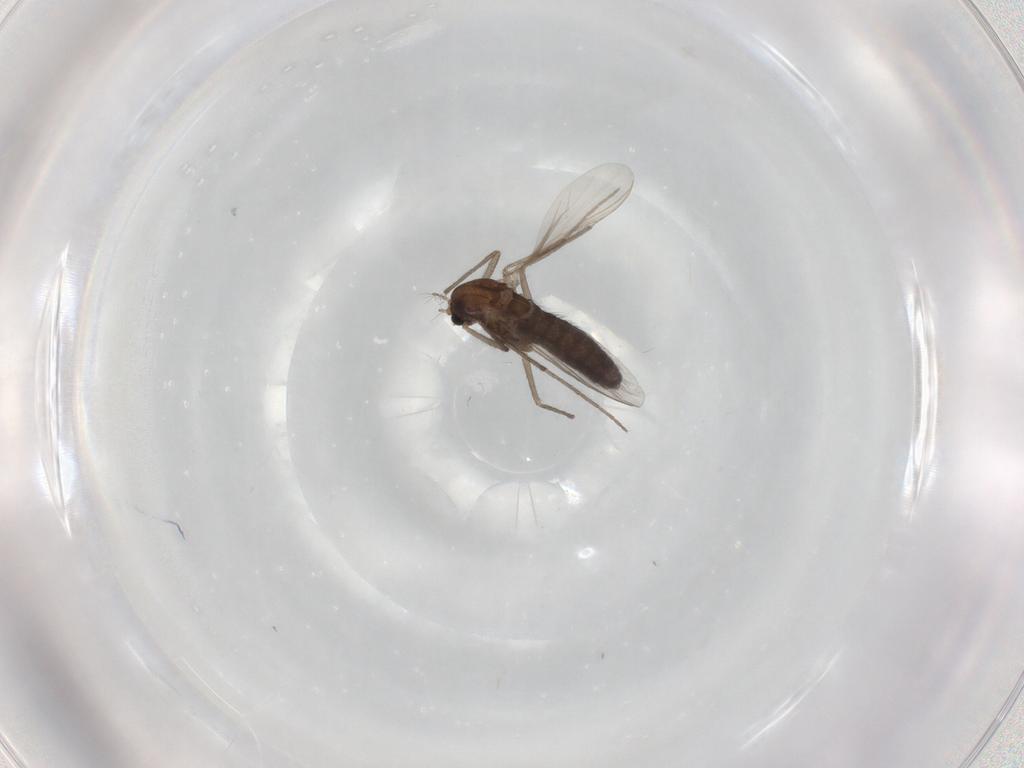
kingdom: Animalia
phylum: Arthropoda
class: Insecta
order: Diptera
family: Chironomidae
